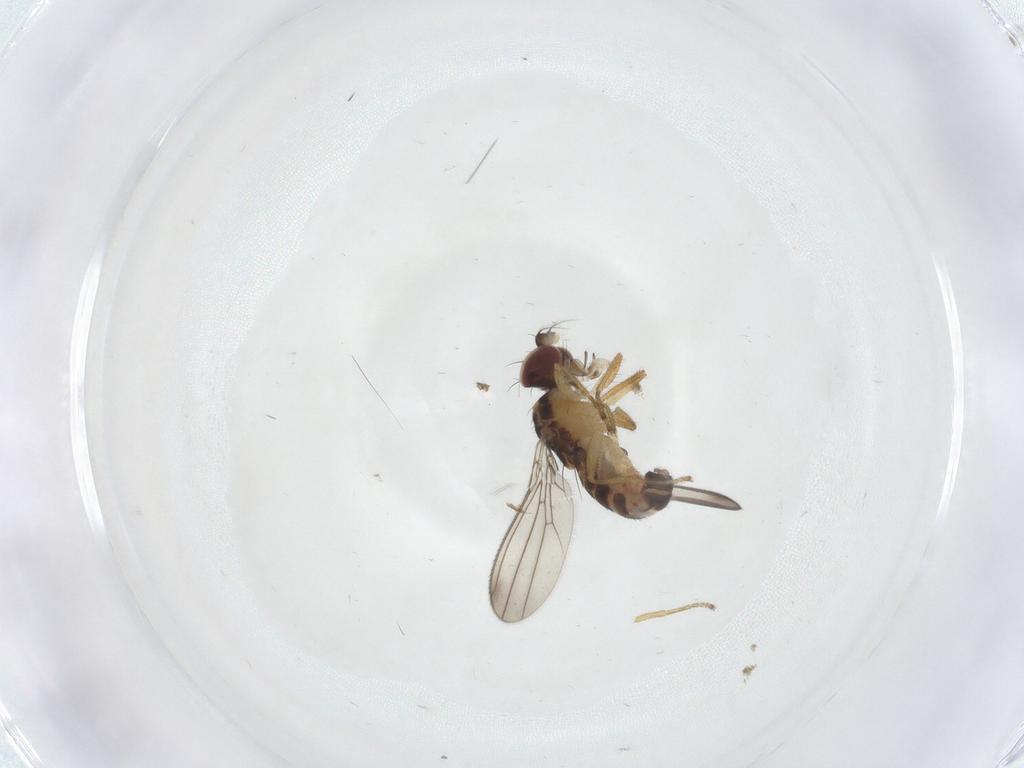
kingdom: Animalia
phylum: Arthropoda
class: Insecta
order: Diptera
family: Anthomyzidae
